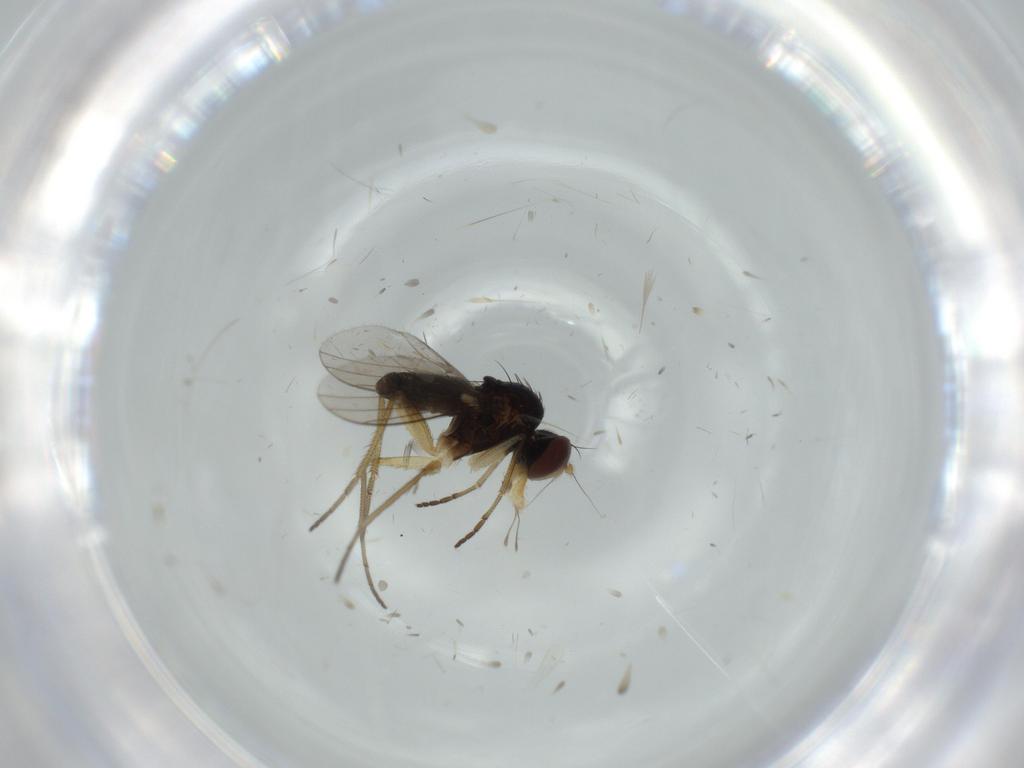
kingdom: Animalia
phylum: Arthropoda
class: Insecta
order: Diptera
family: Dolichopodidae
